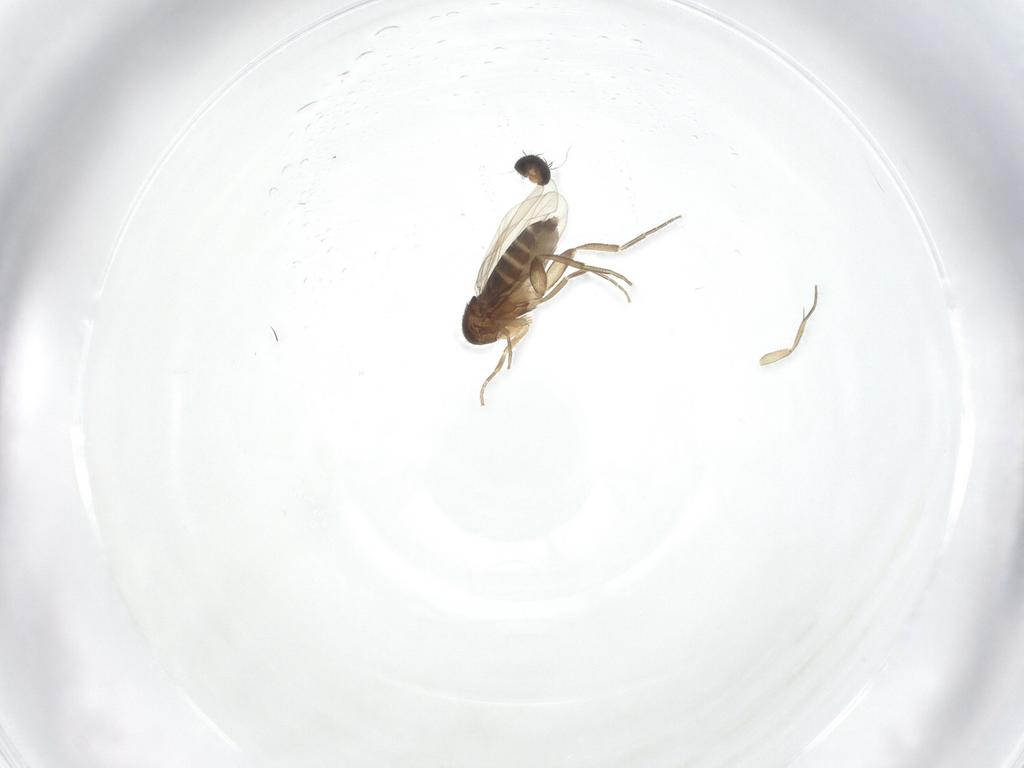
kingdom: Animalia
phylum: Arthropoda
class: Insecta
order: Diptera
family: Phoridae
